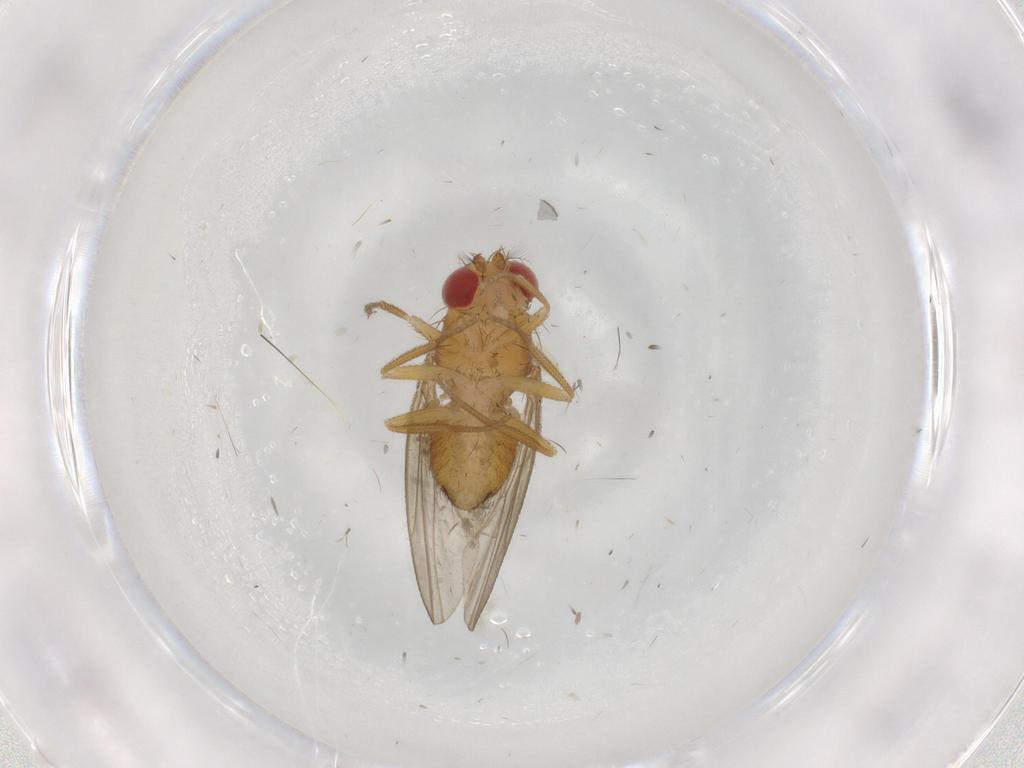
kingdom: Animalia
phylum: Arthropoda
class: Insecta
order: Diptera
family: Drosophilidae
